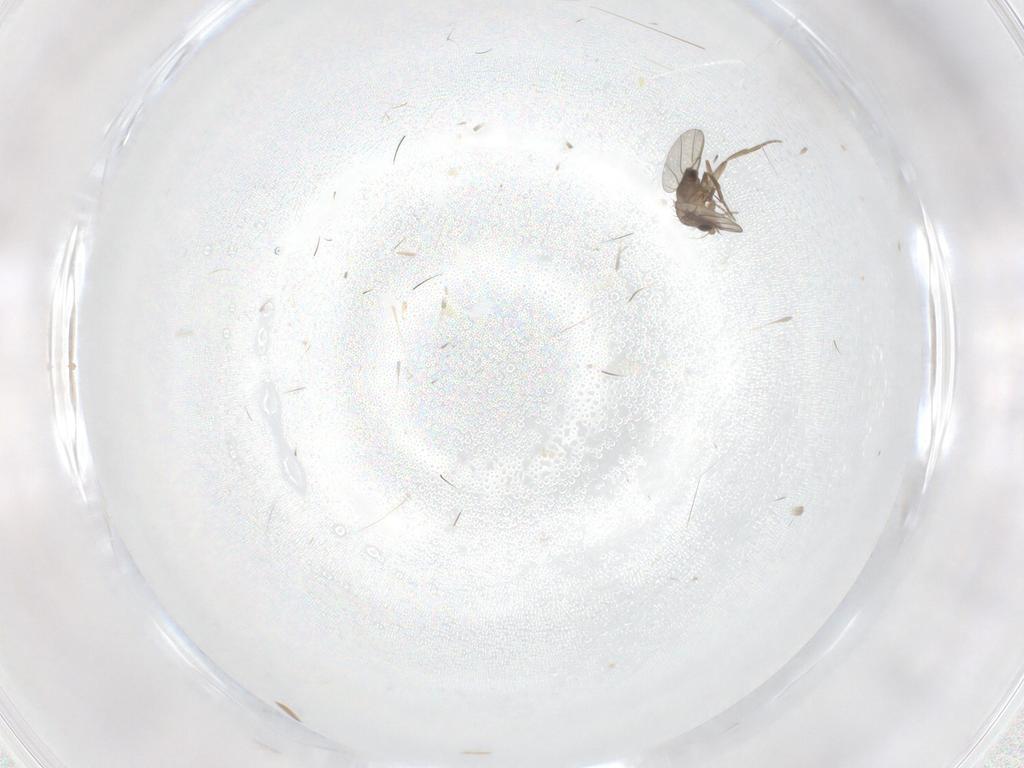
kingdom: Animalia
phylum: Arthropoda
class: Insecta
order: Diptera
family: Phoridae
